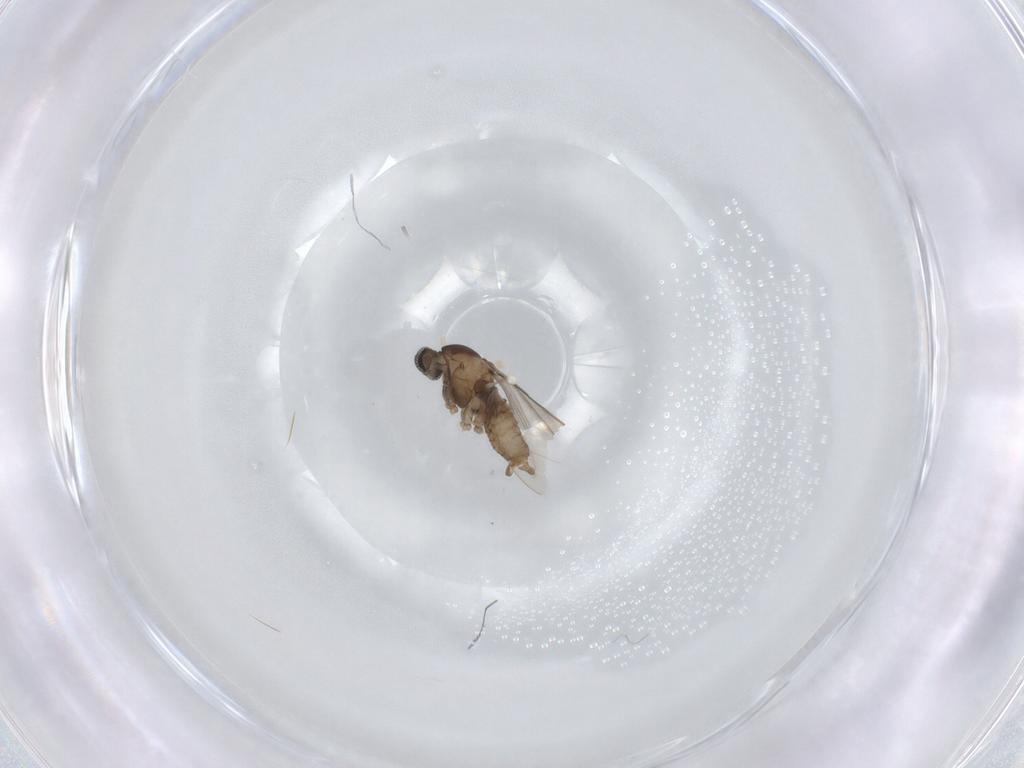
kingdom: Animalia
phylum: Arthropoda
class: Insecta
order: Diptera
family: Cecidomyiidae
